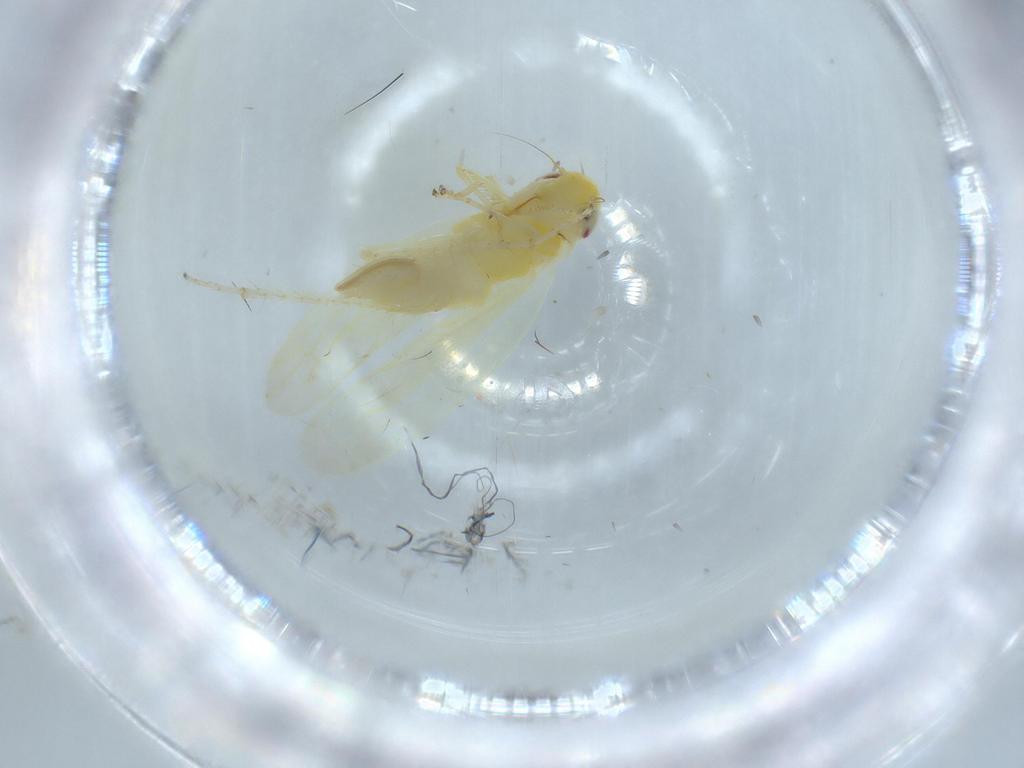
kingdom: Animalia
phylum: Arthropoda
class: Insecta
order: Hemiptera
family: Cicadellidae
